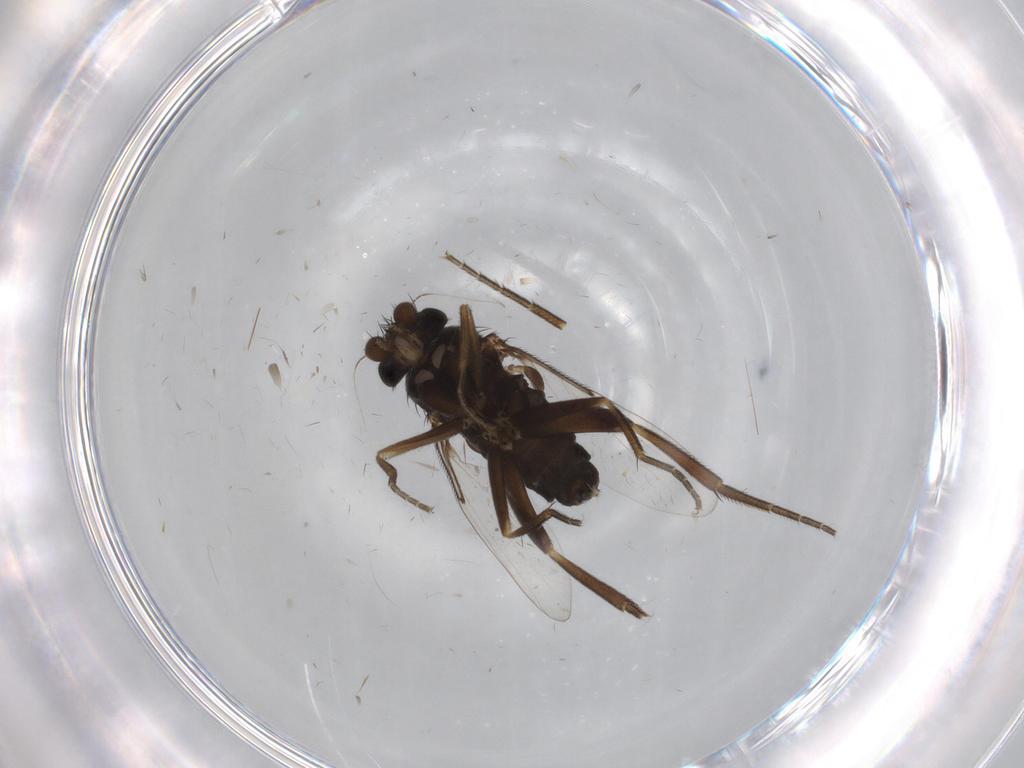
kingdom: Animalia
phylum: Arthropoda
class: Insecta
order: Diptera
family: Phoridae
